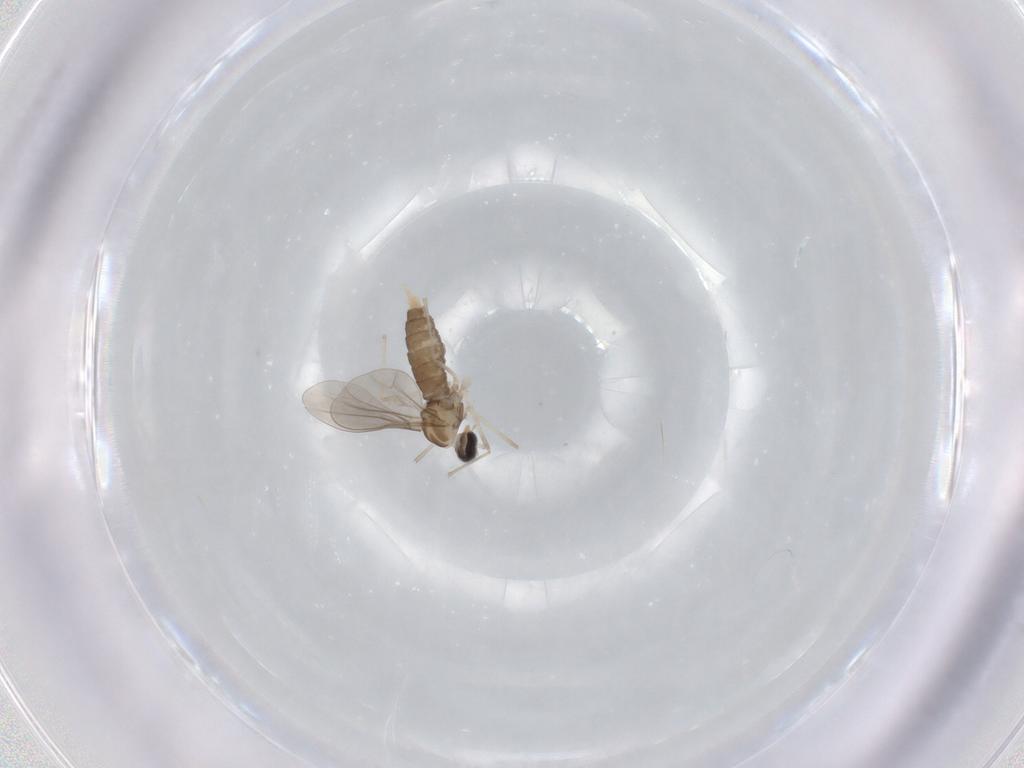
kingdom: Animalia
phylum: Arthropoda
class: Insecta
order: Diptera
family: Cecidomyiidae
